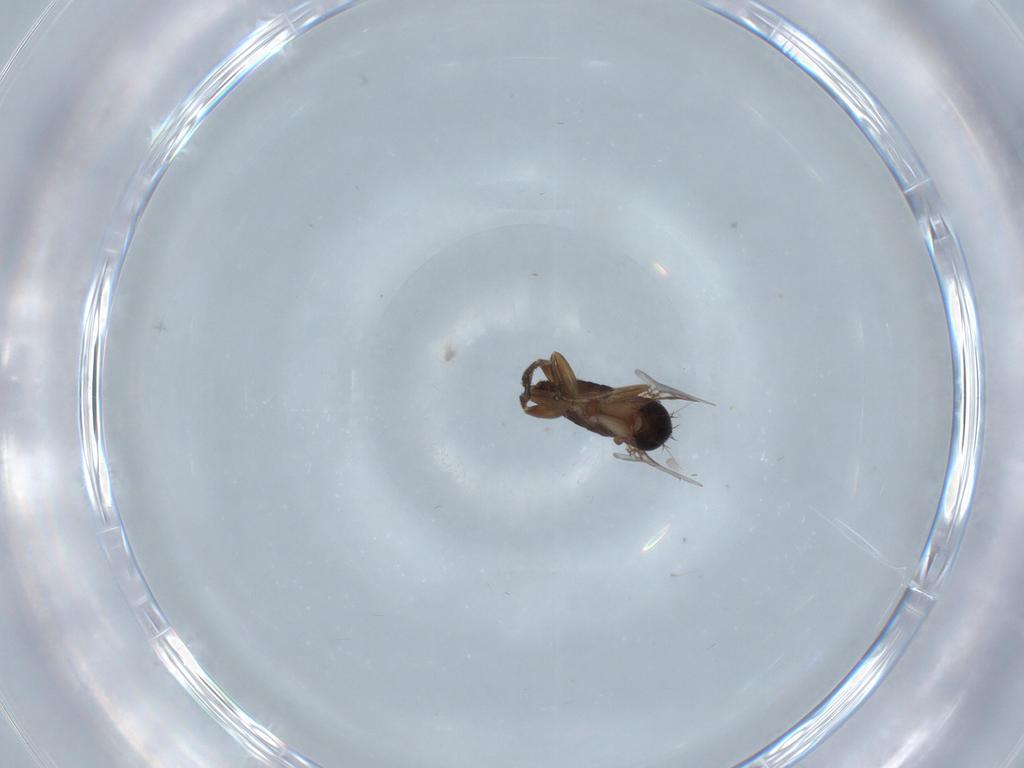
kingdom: Animalia
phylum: Arthropoda
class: Insecta
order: Diptera
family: Phoridae
